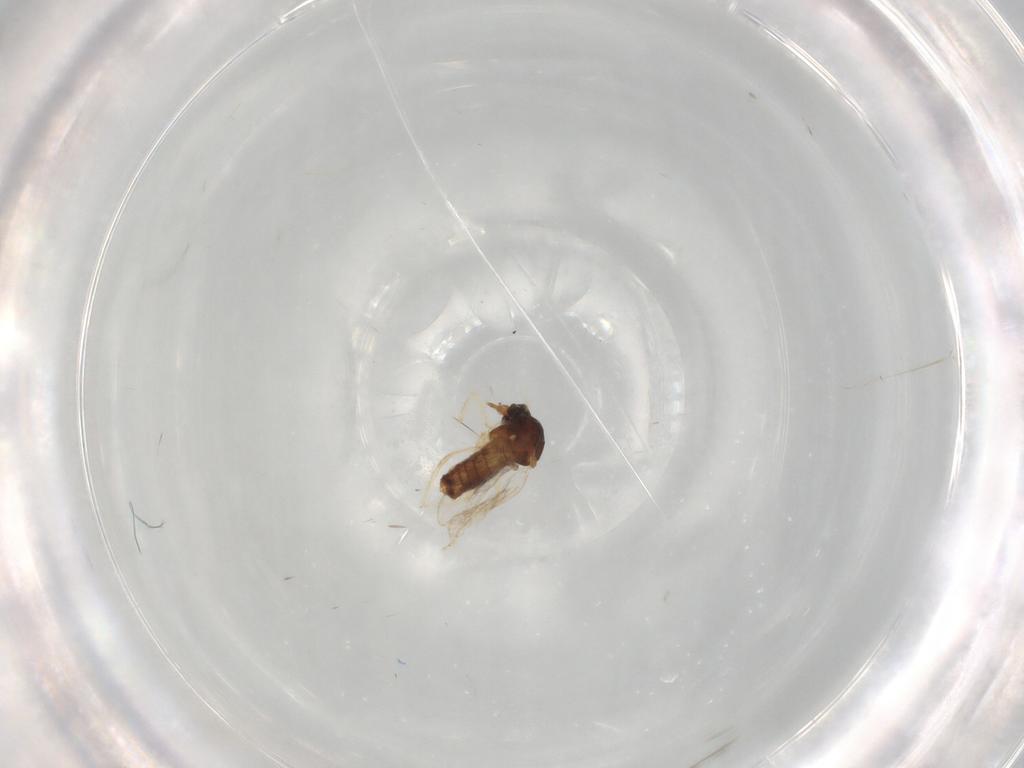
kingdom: Animalia
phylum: Arthropoda
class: Insecta
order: Diptera
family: Ceratopogonidae
